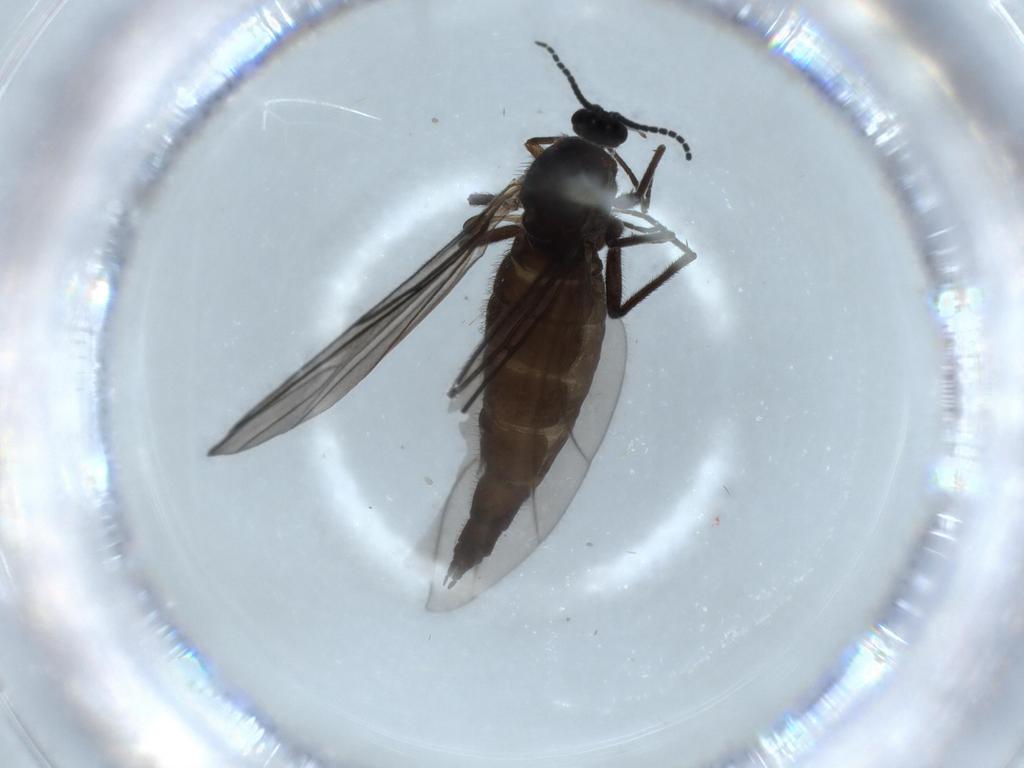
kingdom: Animalia
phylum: Arthropoda
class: Insecta
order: Diptera
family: Sciaridae
